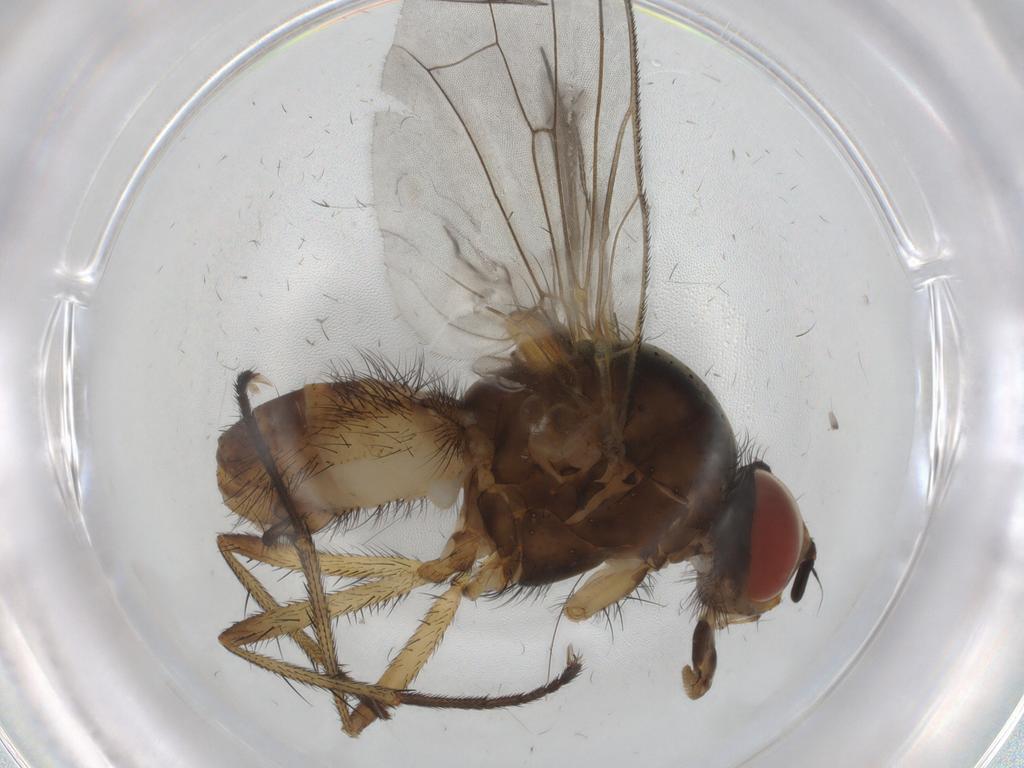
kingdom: Animalia
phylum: Arthropoda
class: Insecta
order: Diptera
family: Anthomyiidae
